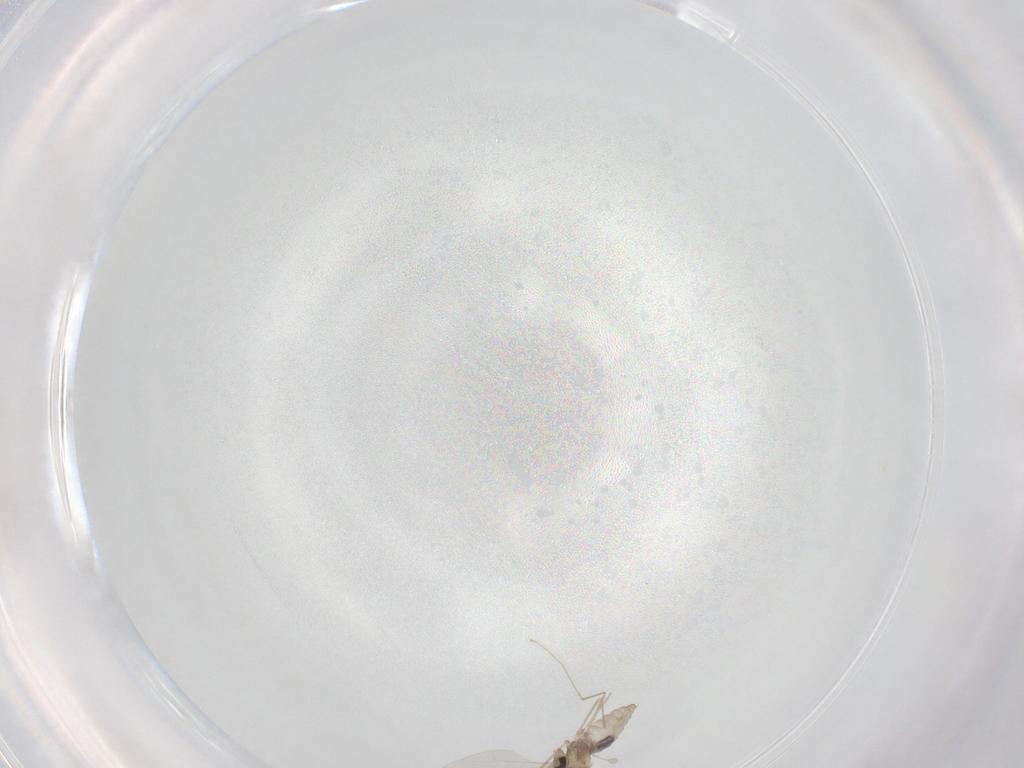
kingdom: Animalia
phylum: Arthropoda
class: Insecta
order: Diptera
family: Cecidomyiidae
